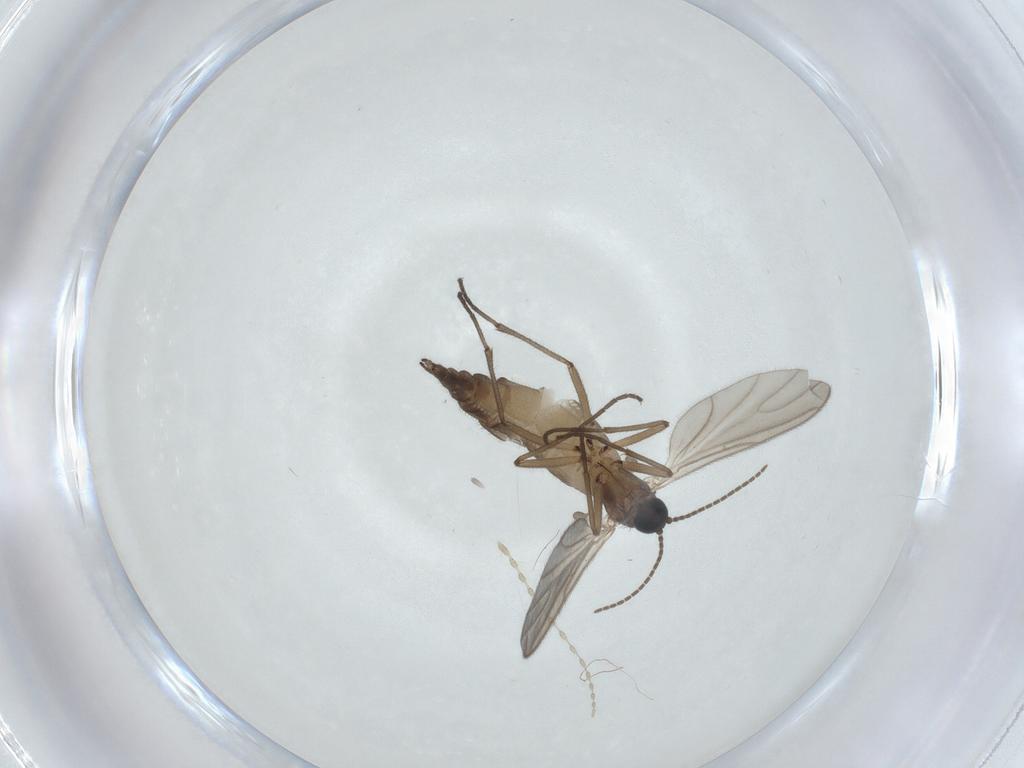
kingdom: Animalia
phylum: Arthropoda
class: Insecta
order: Diptera
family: Sciaridae
